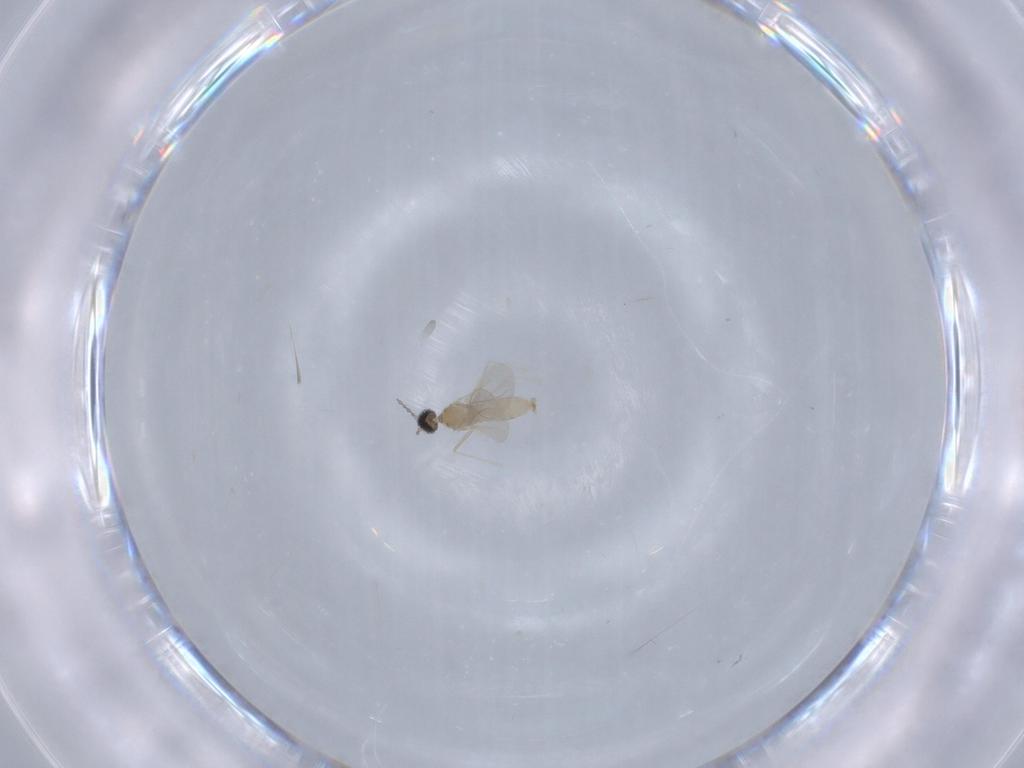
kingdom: Animalia
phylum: Arthropoda
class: Insecta
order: Diptera
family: Cecidomyiidae
